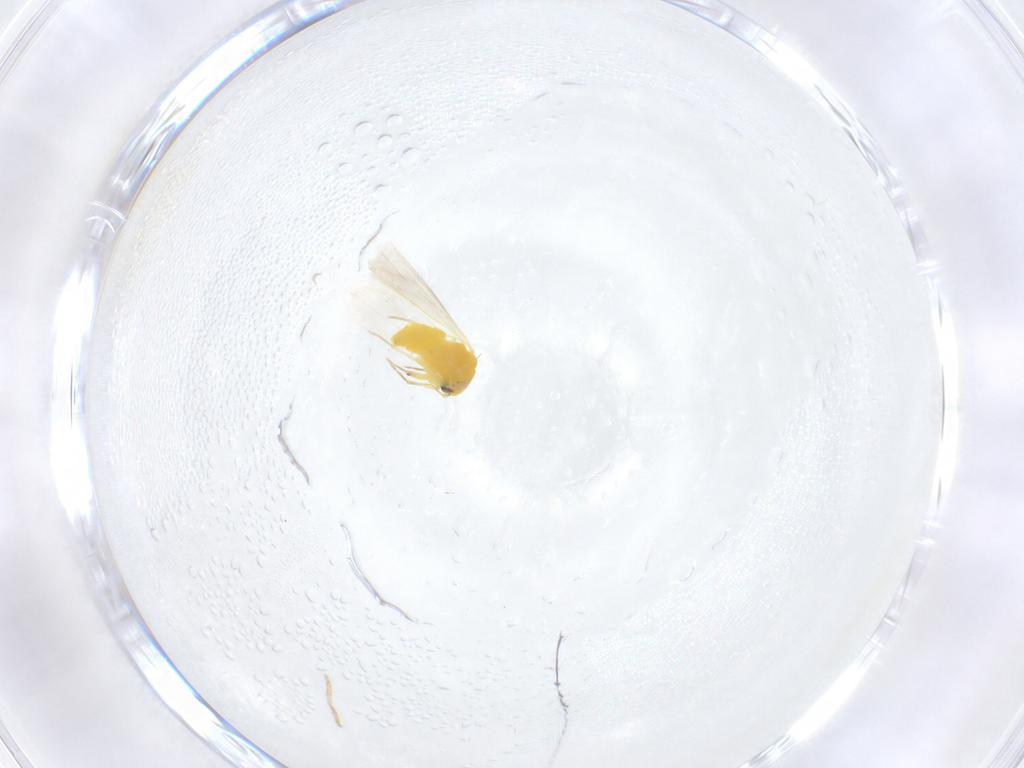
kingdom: Animalia
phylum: Arthropoda
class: Insecta
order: Hemiptera
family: Aleyrodidae
